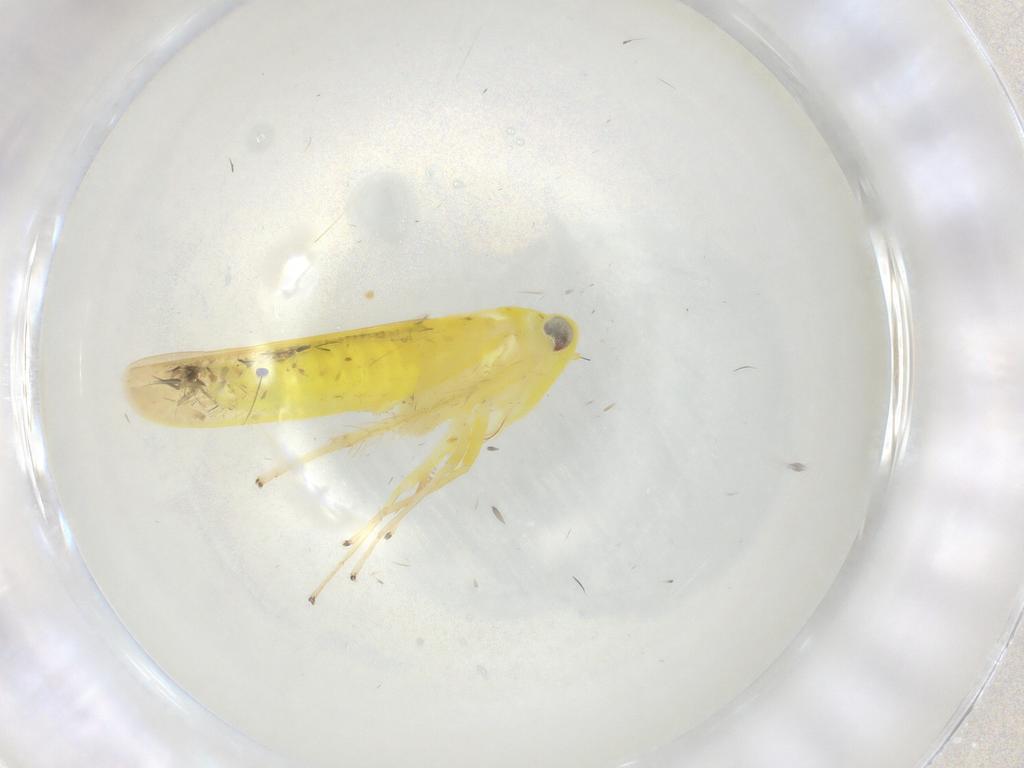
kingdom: Animalia
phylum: Arthropoda
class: Insecta
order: Hemiptera
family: Cicadellidae
